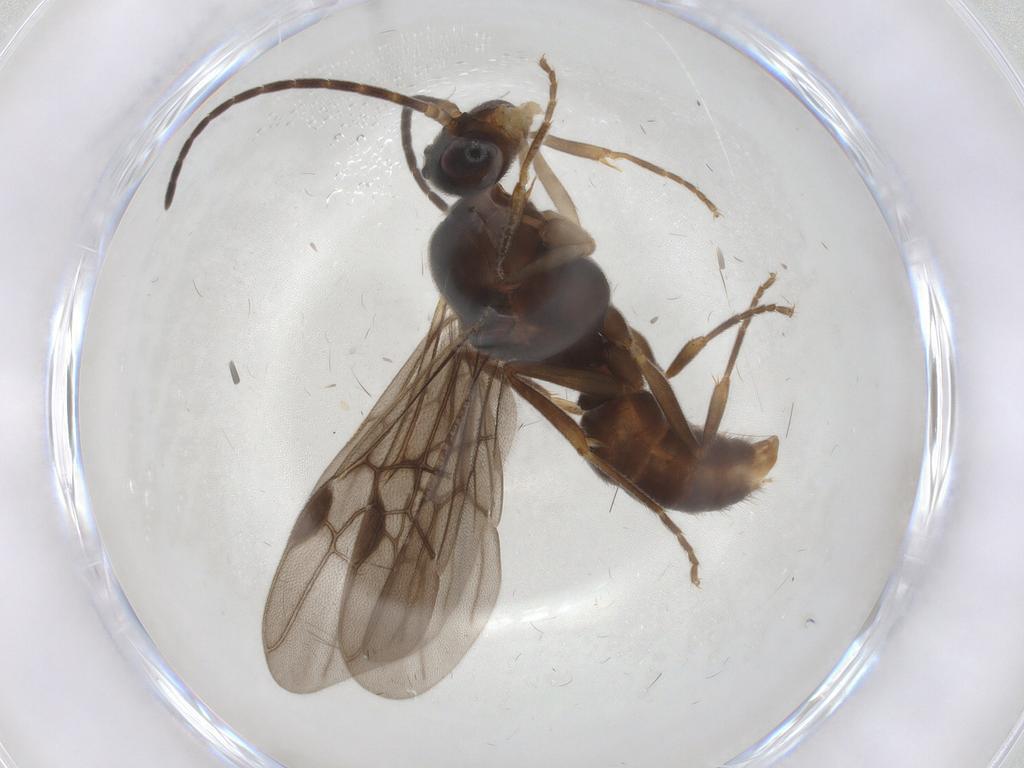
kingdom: Animalia
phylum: Arthropoda
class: Insecta
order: Hymenoptera
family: Formicidae
